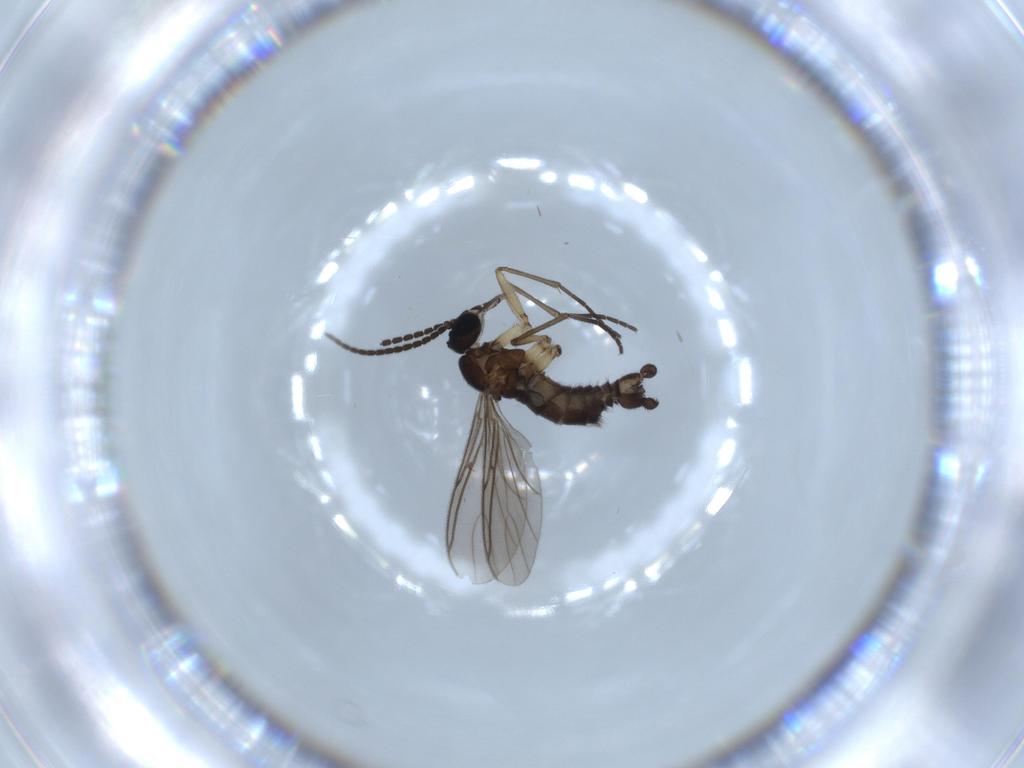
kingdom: Animalia
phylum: Arthropoda
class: Insecta
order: Diptera
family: Sciaridae
